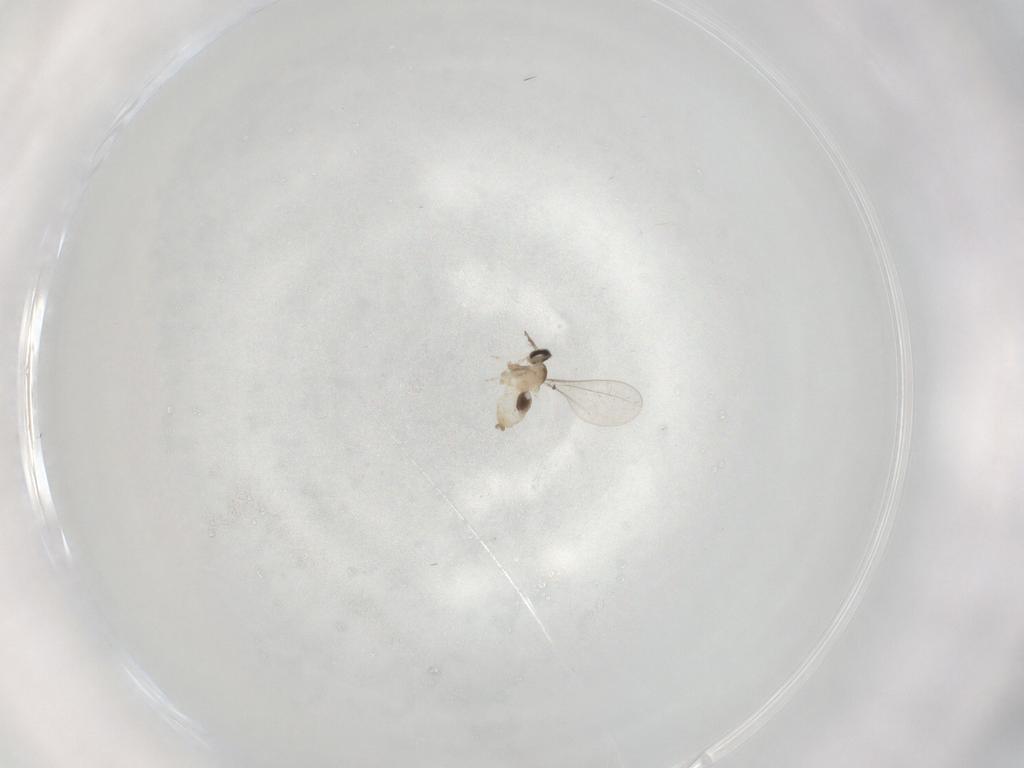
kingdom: Animalia
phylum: Arthropoda
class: Insecta
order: Diptera
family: Cecidomyiidae
